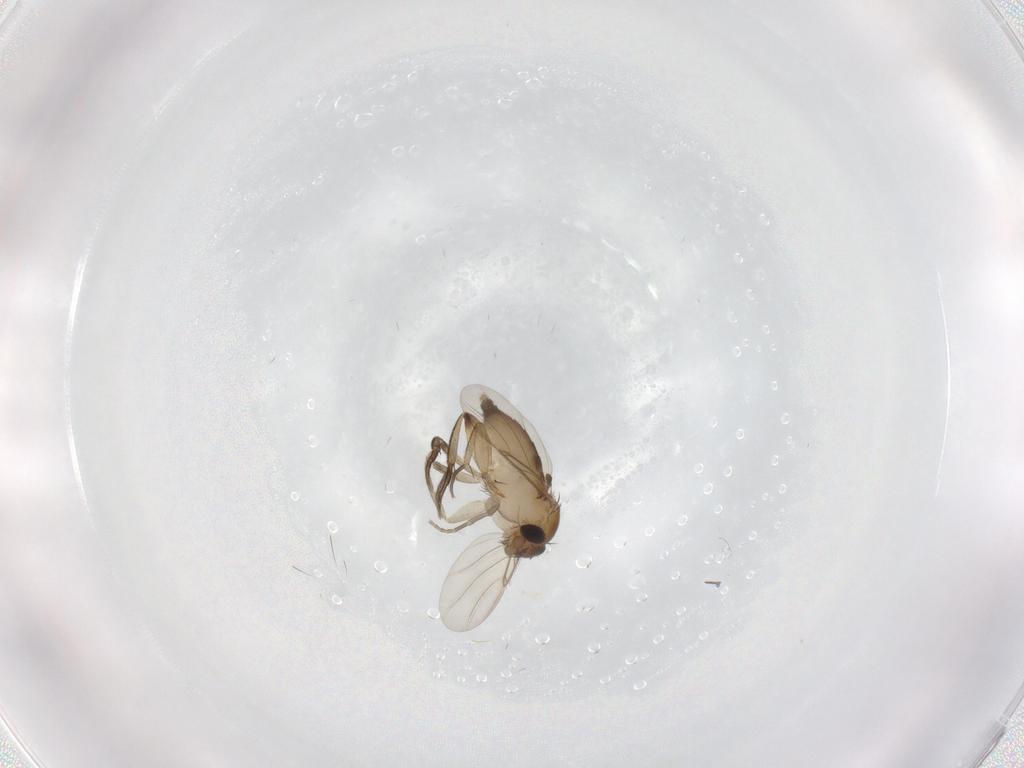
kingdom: Animalia
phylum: Arthropoda
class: Insecta
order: Diptera
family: Phoridae
